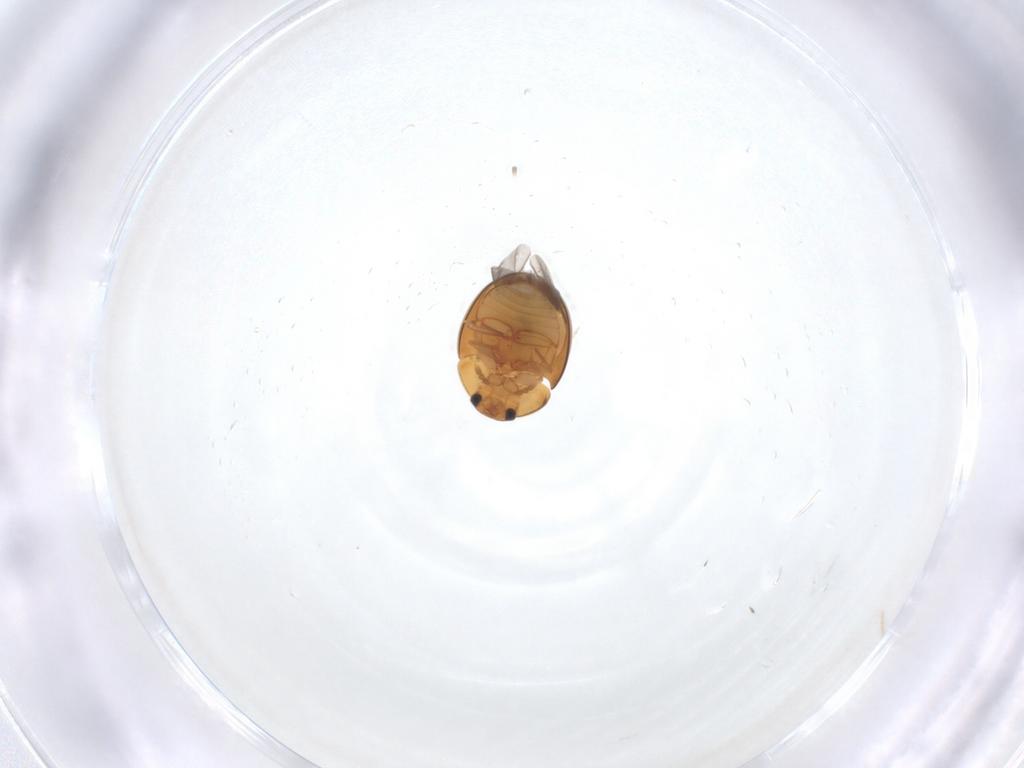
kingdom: Animalia
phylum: Arthropoda
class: Insecta
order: Coleoptera
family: Phalacridae
